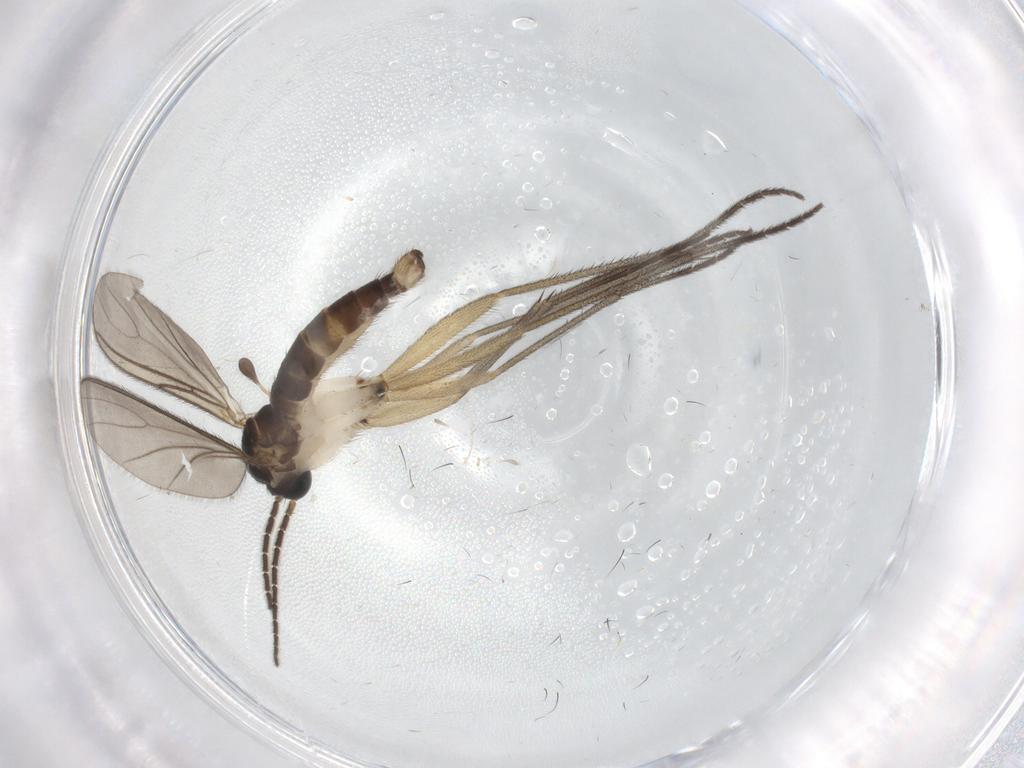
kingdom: Animalia
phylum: Arthropoda
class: Insecta
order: Diptera
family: Sciaridae
